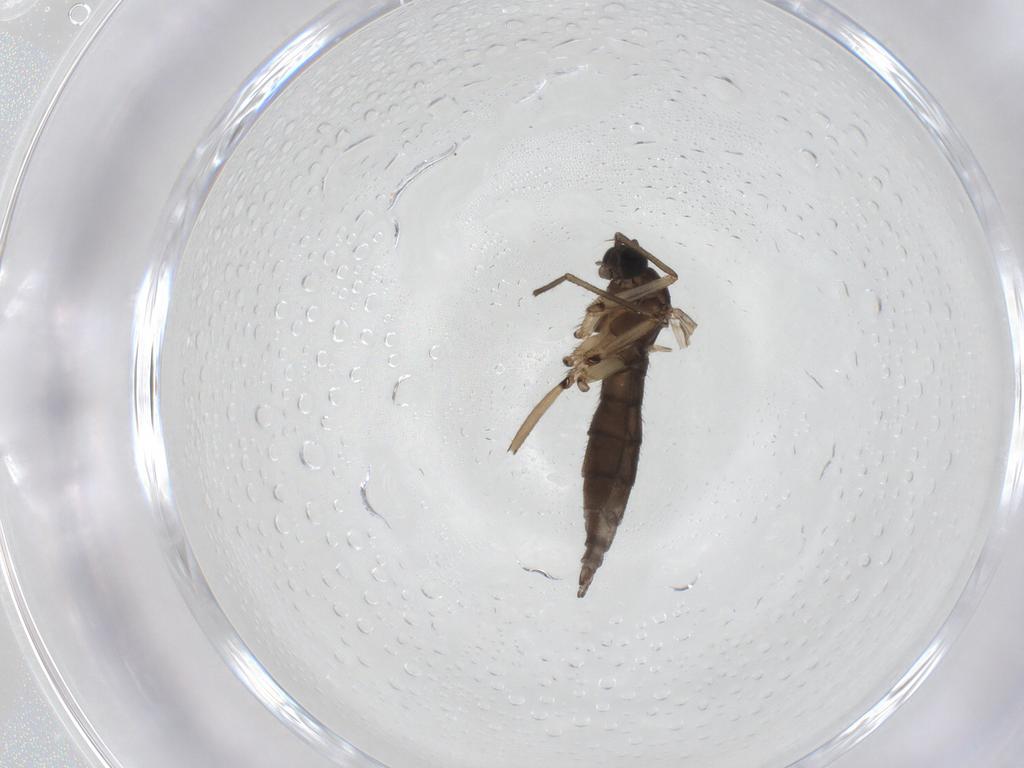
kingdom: Animalia
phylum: Arthropoda
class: Insecta
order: Diptera
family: Sciaridae
